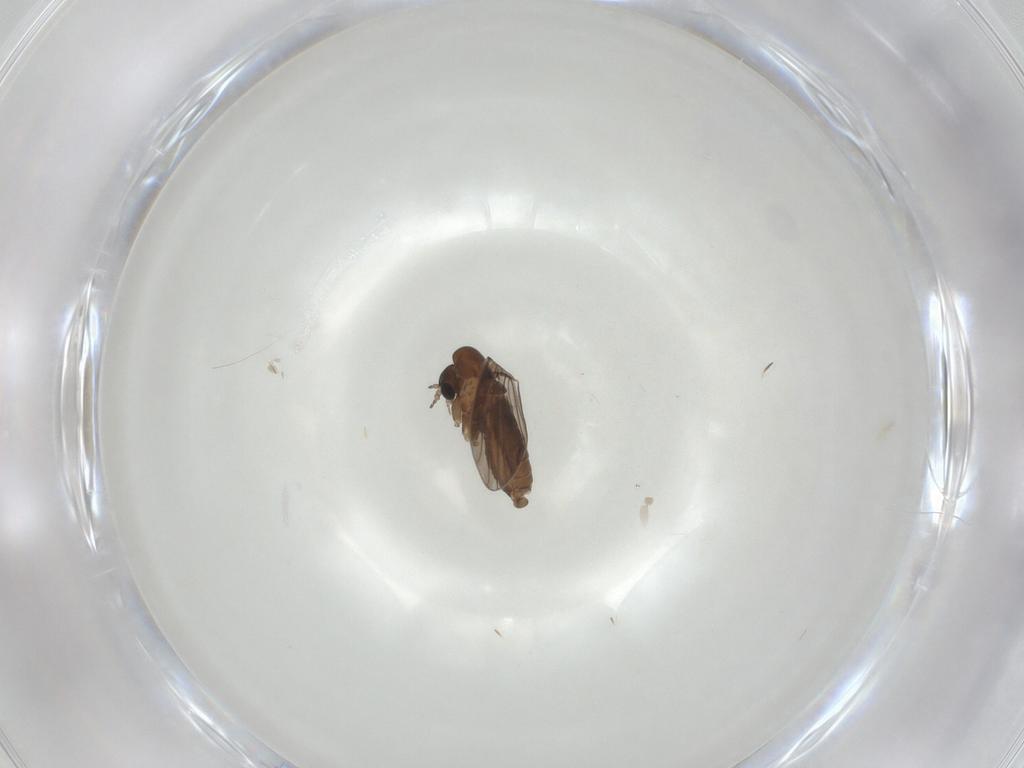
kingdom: Animalia
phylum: Arthropoda
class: Insecta
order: Diptera
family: Psychodidae
